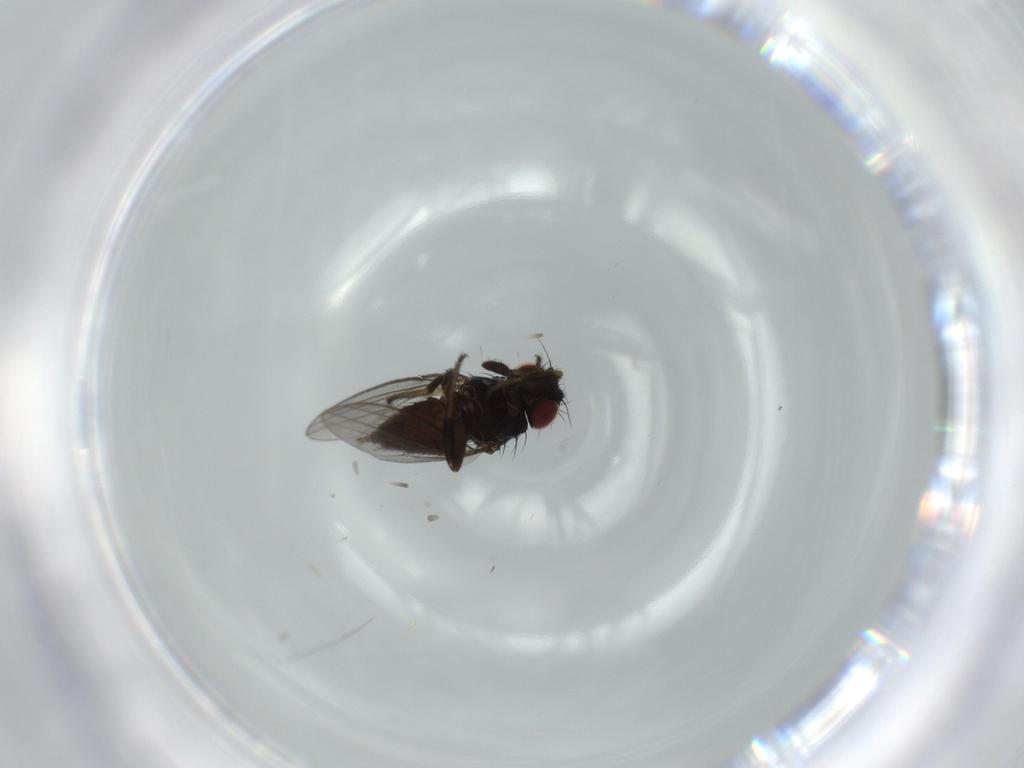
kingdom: Animalia
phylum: Arthropoda
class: Insecta
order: Diptera
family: Milichiidae
